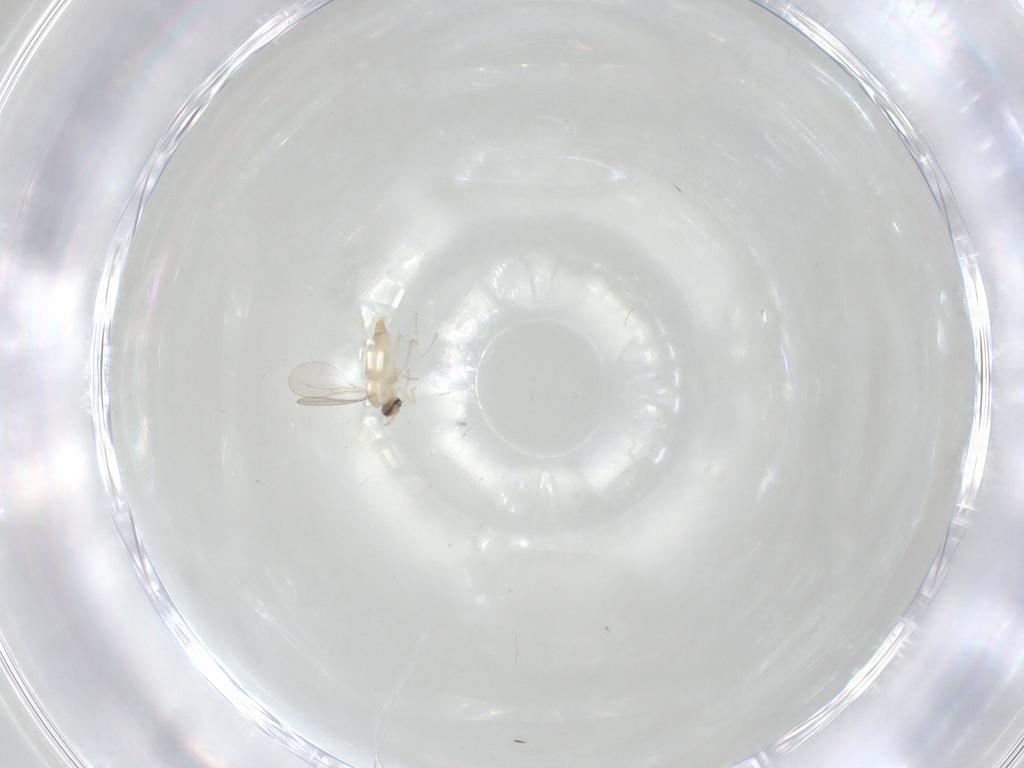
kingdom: Animalia
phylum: Arthropoda
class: Insecta
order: Diptera
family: Cecidomyiidae
